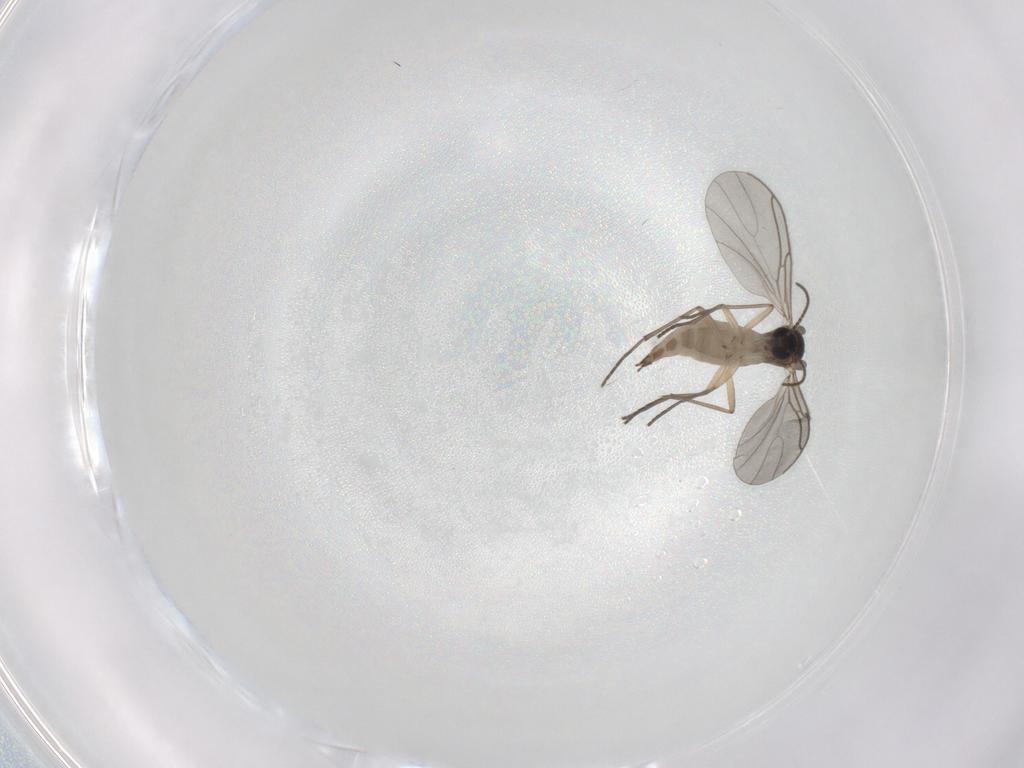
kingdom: Animalia
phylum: Arthropoda
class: Insecta
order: Diptera
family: Sciaridae
